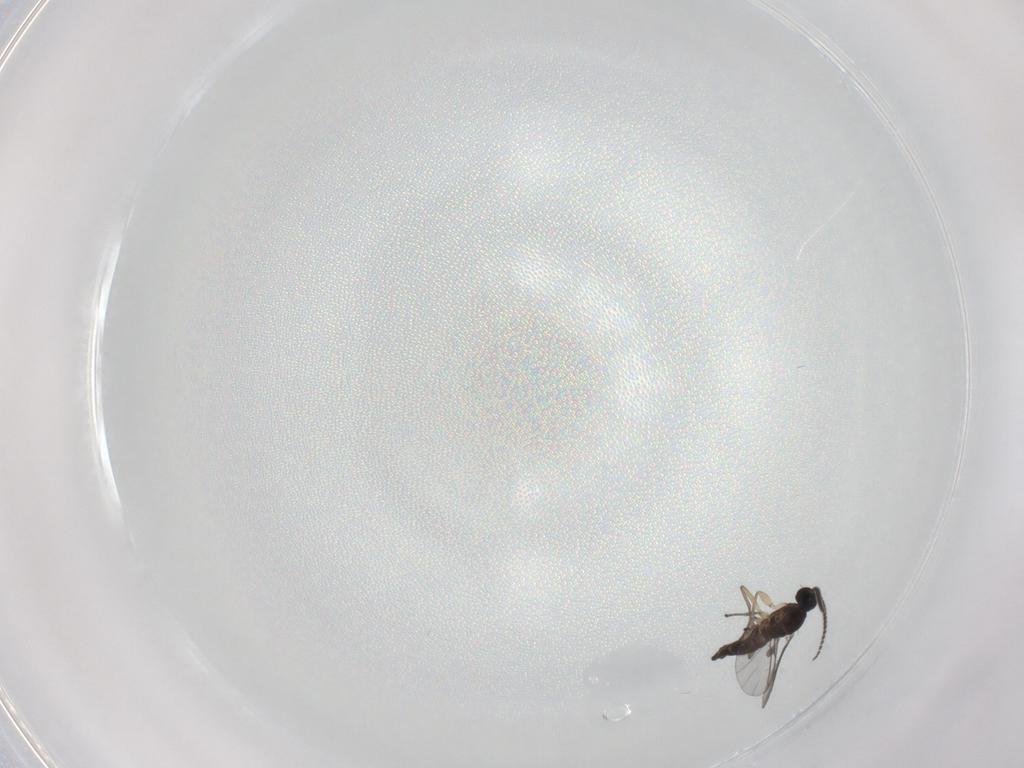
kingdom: Animalia
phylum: Arthropoda
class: Insecta
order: Diptera
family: Sciaridae
